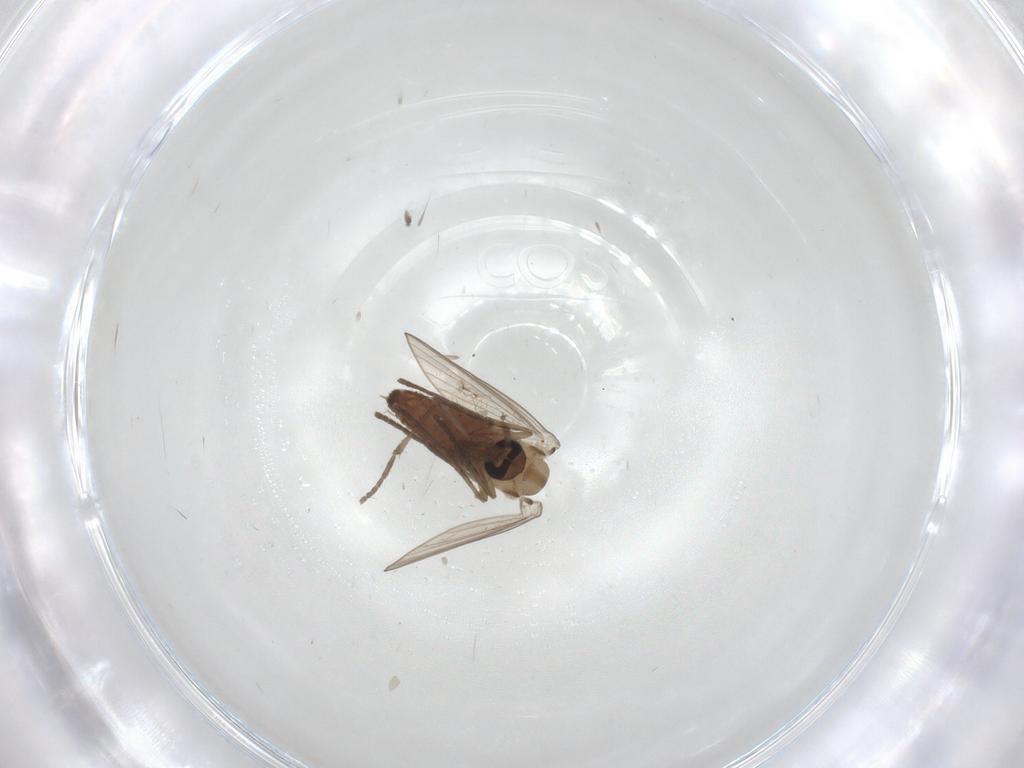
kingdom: Animalia
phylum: Arthropoda
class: Insecta
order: Diptera
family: Psychodidae
